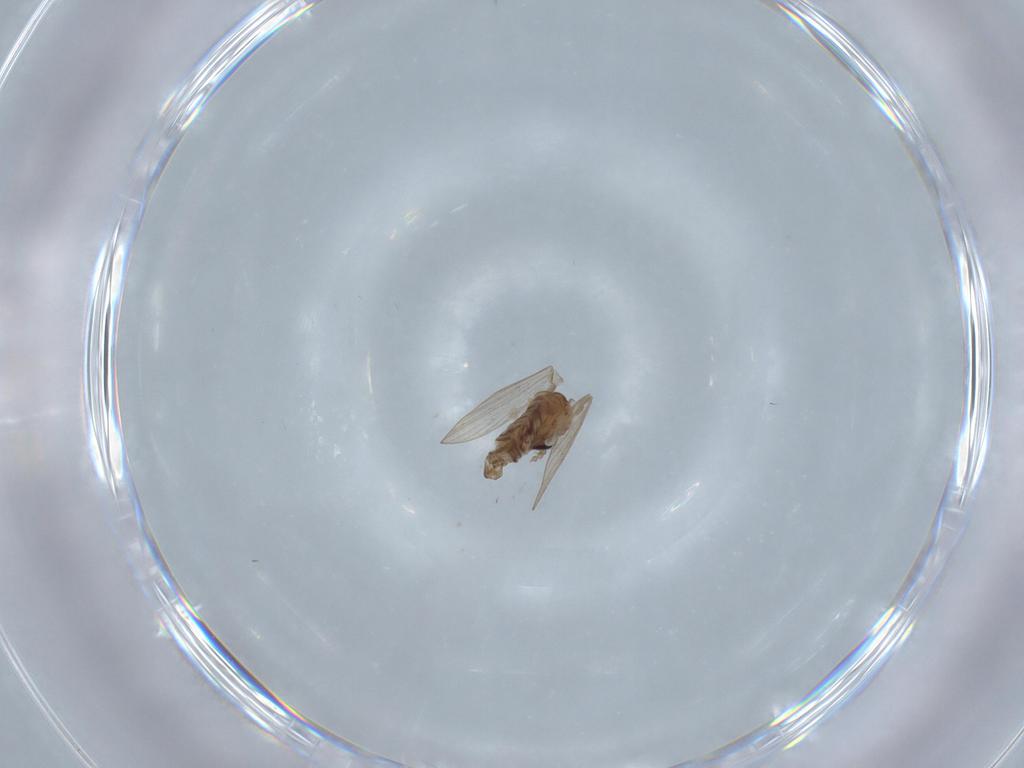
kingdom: Animalia
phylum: Arthropoda
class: Insecta
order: Diptera
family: Psychodidae
